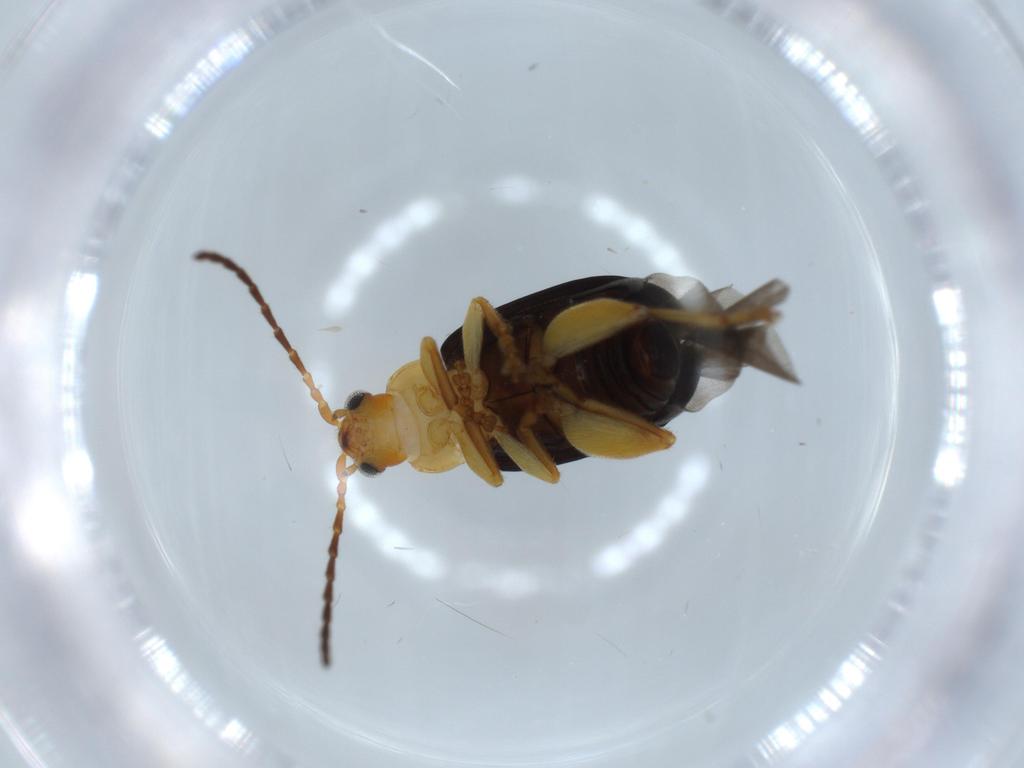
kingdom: Animalia
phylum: Arthropoda
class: Insecta
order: Coleoptera
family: Chrysomelidae
